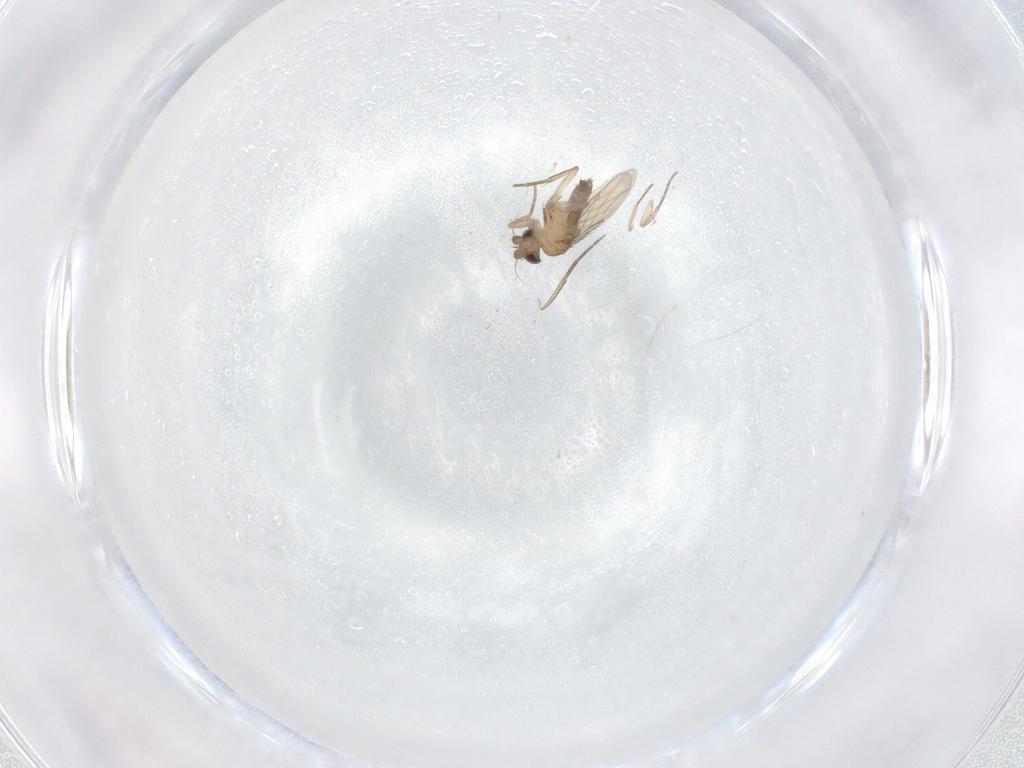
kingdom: Animalia
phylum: Arthropoda
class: Insecta
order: Diptera
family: Phoridae
